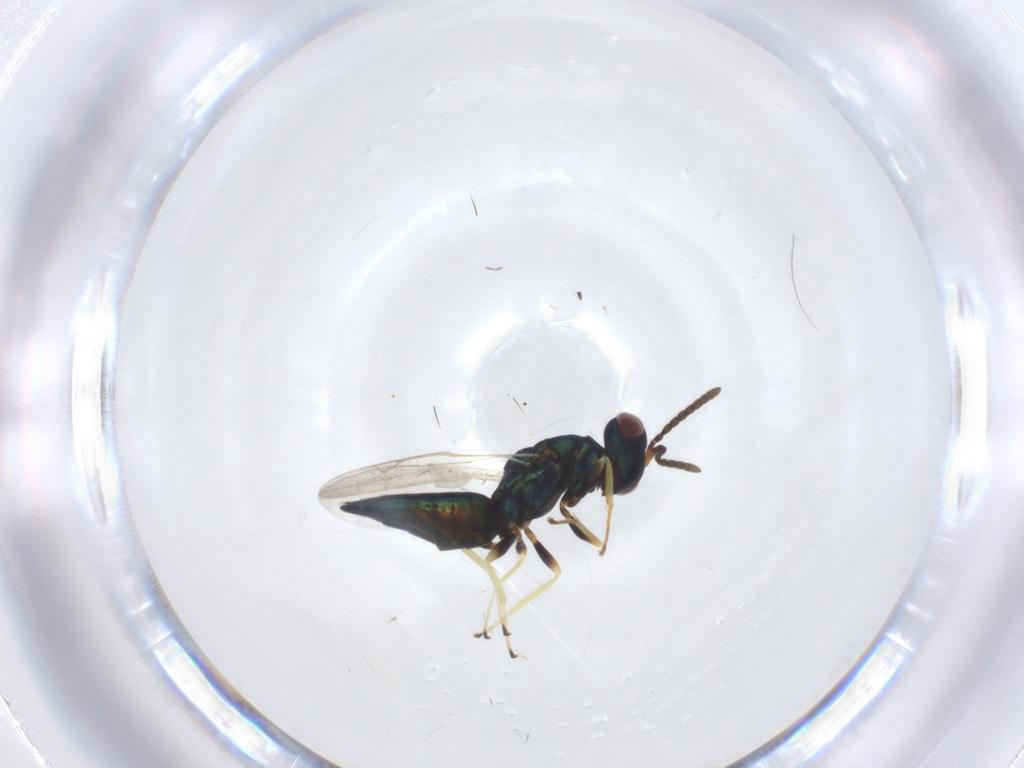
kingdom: Animalia
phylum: Arthropoda
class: Insecta
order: Hymenoptera
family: Pteromalidae
